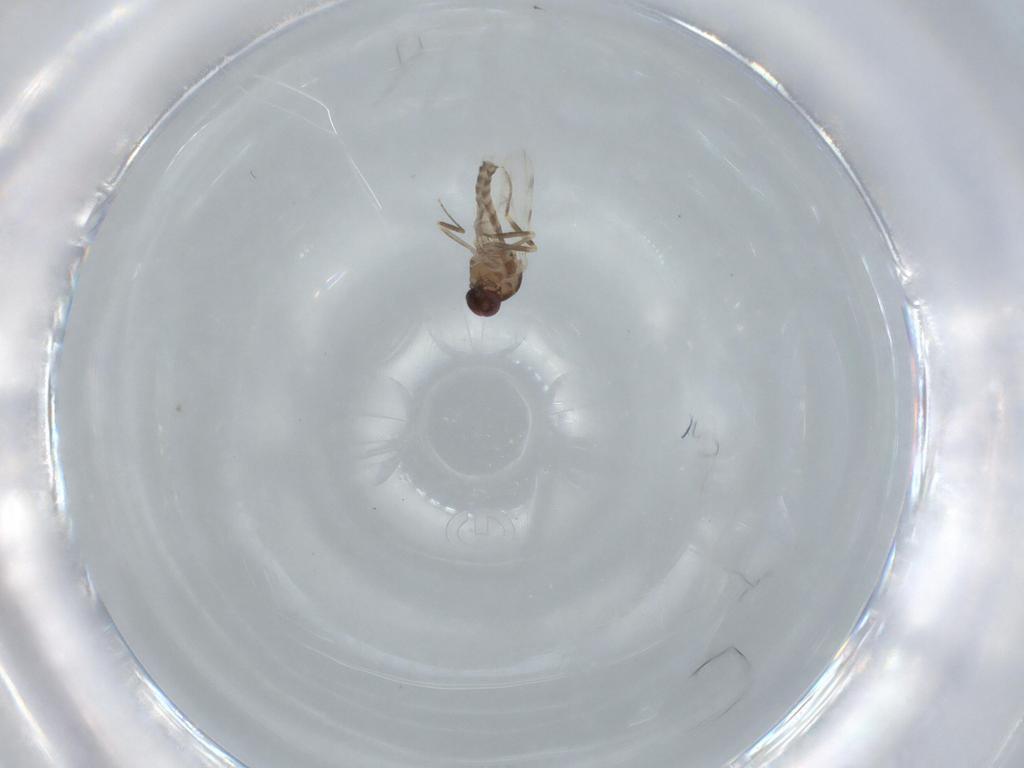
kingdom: Animalia
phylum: Arthropoda
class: Insecta
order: Diptera
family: Ceratopogonidae
